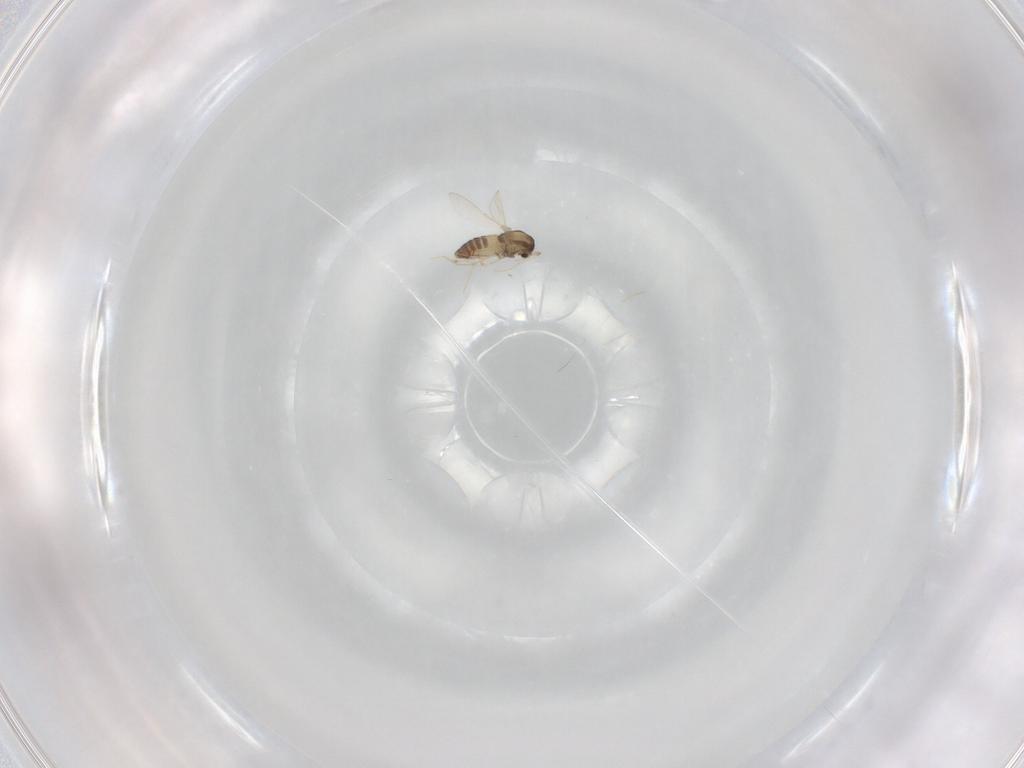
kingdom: Animalia
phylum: Arthropoda
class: Insecta
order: Diptera
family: Chironomidae
